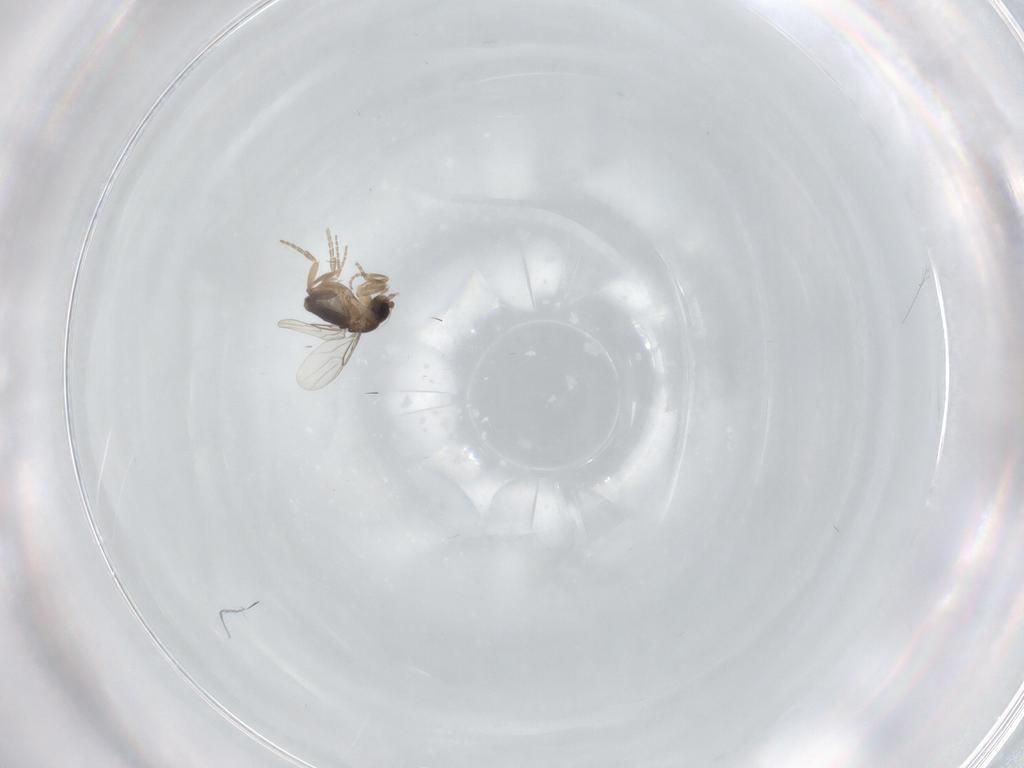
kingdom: Animalia
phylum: Arthropoda
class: Insecta
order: Diptera
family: Phoridae
